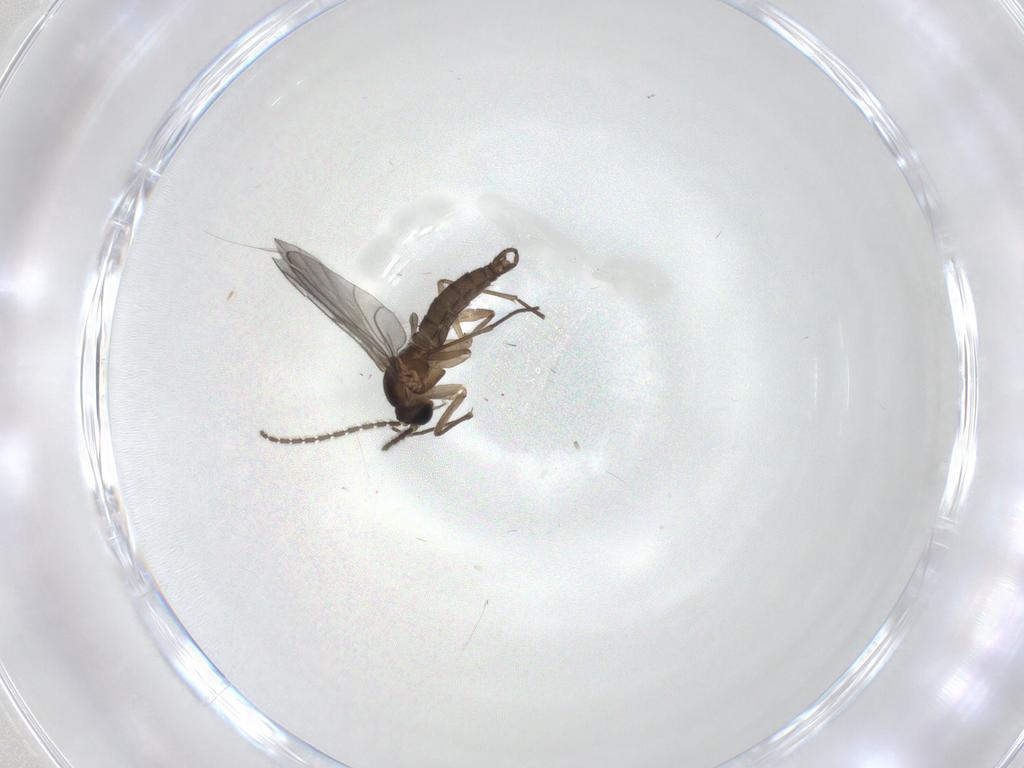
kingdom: Animalia
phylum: Arthropoda
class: Insecta
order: Diptera
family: Cecidomyiidae
